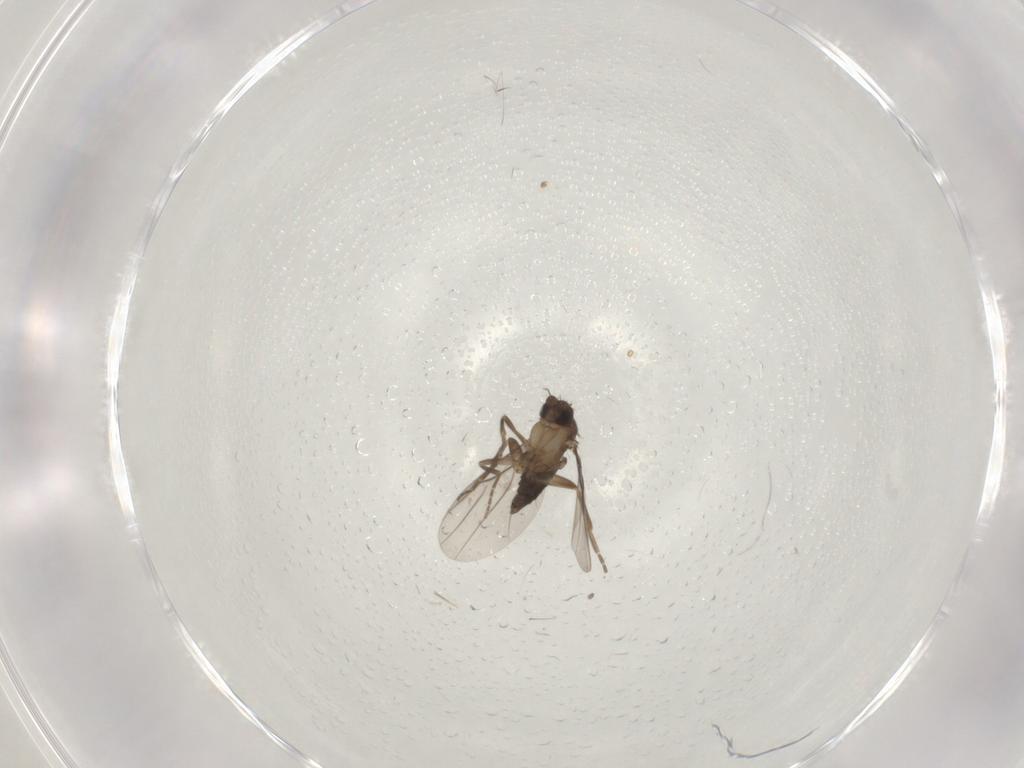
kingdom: Animalia
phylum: Arthropoda
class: Insecta
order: Diptera
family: Phoridae
